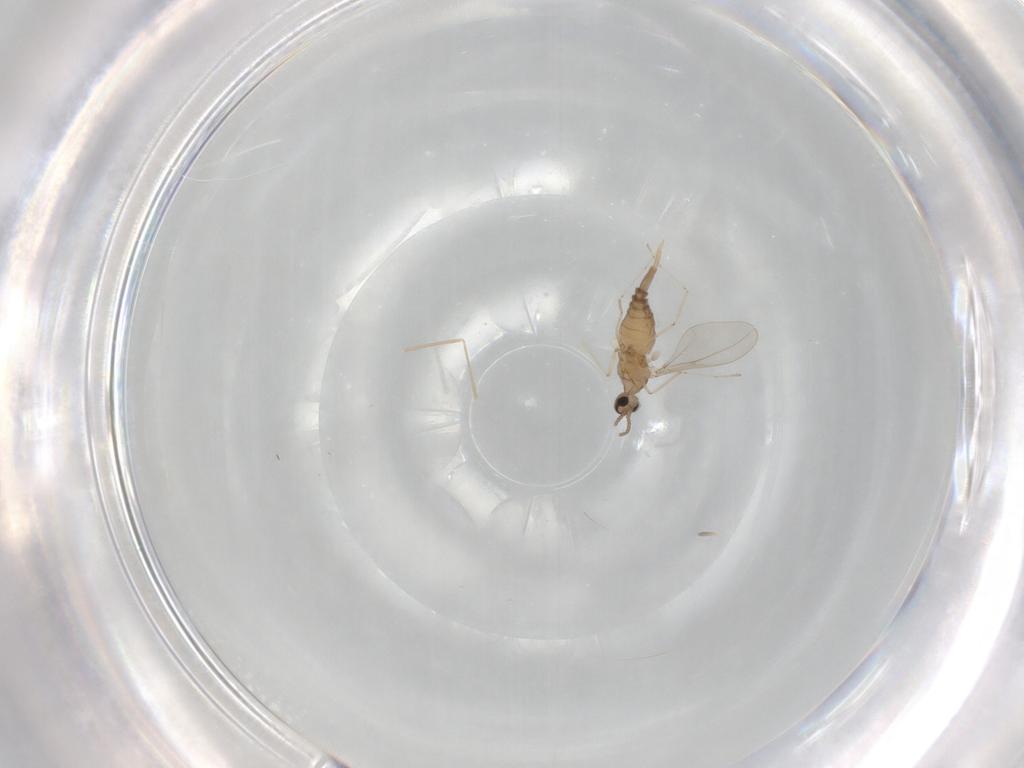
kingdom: Animalia
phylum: Arthropoda
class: Insecta
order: Diptera
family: Cecidomyiidae
